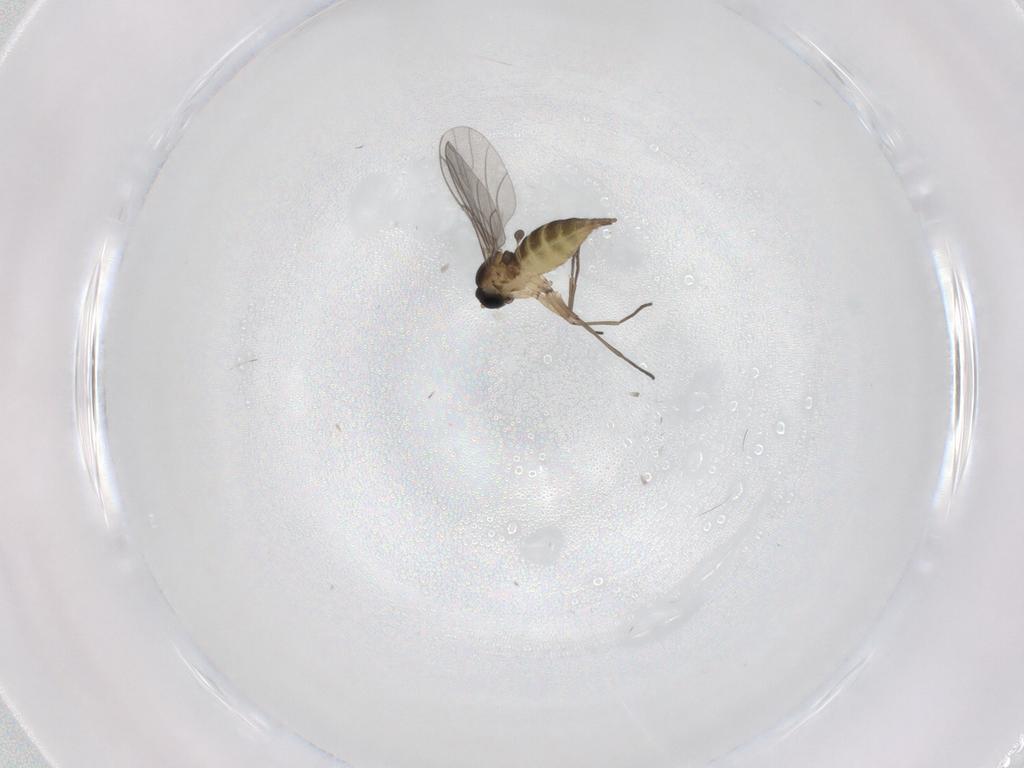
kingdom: Animalia
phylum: Arthropoda
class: Insecta
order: Diptera
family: Sciaridae
